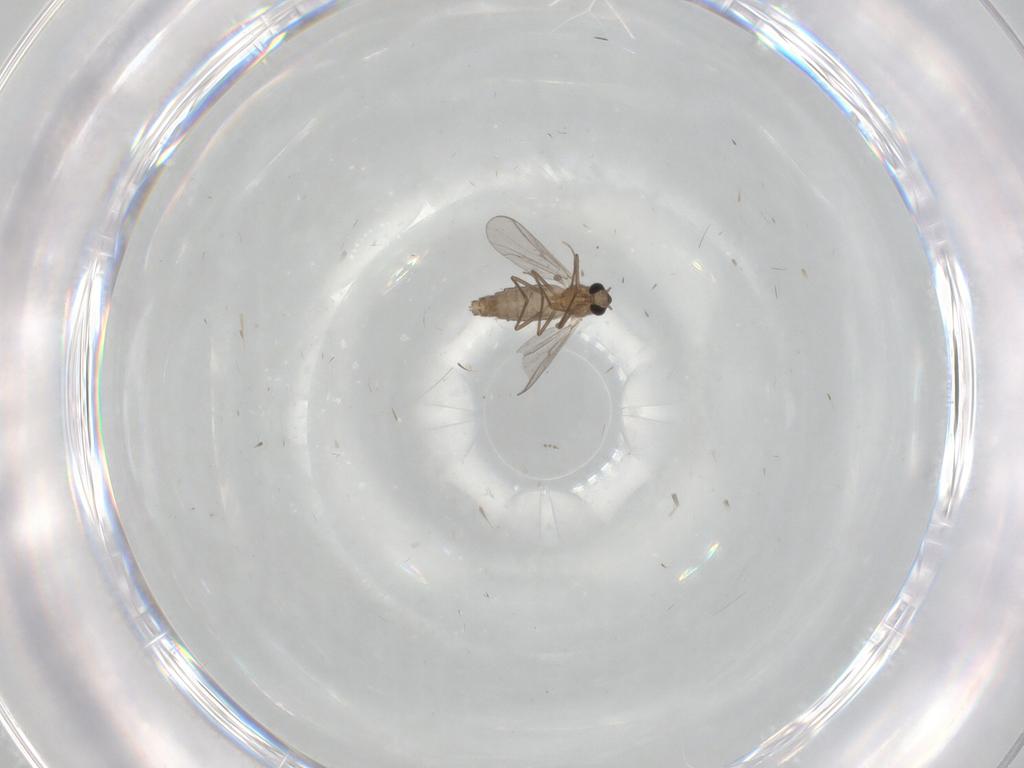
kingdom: Animalia
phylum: Arthropoda
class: Insecta
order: Diptera
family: Chironomidae
